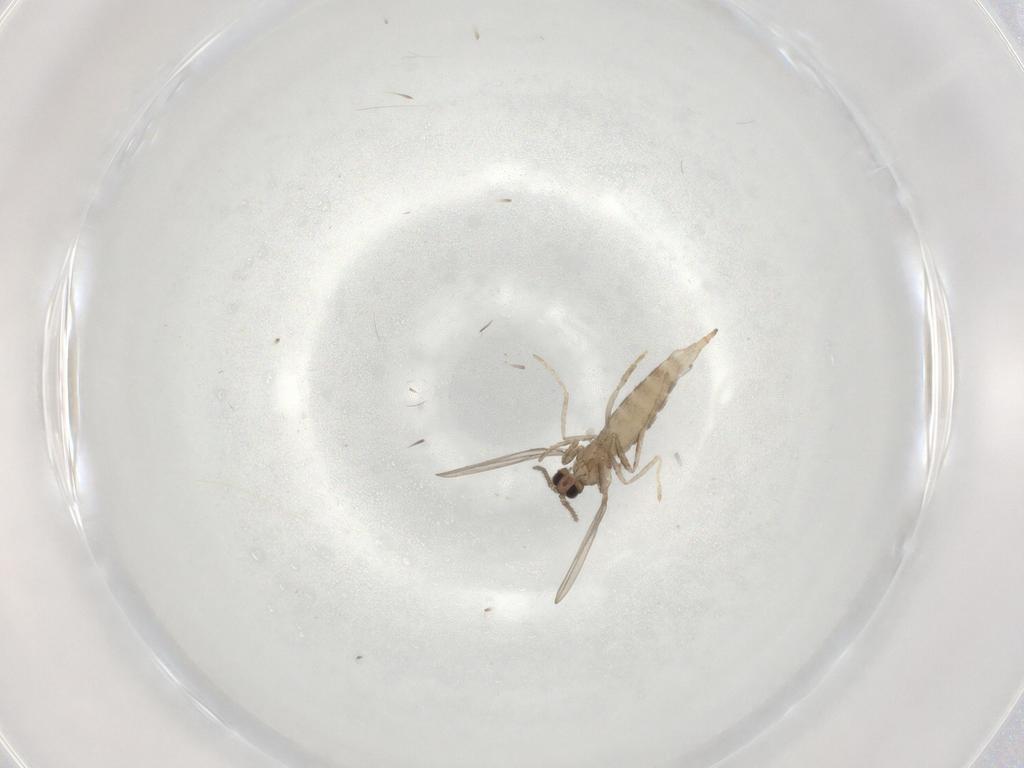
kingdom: Animalia
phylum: Arthropoda
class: Insecta
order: Diptera
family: Cecidomyiidae
